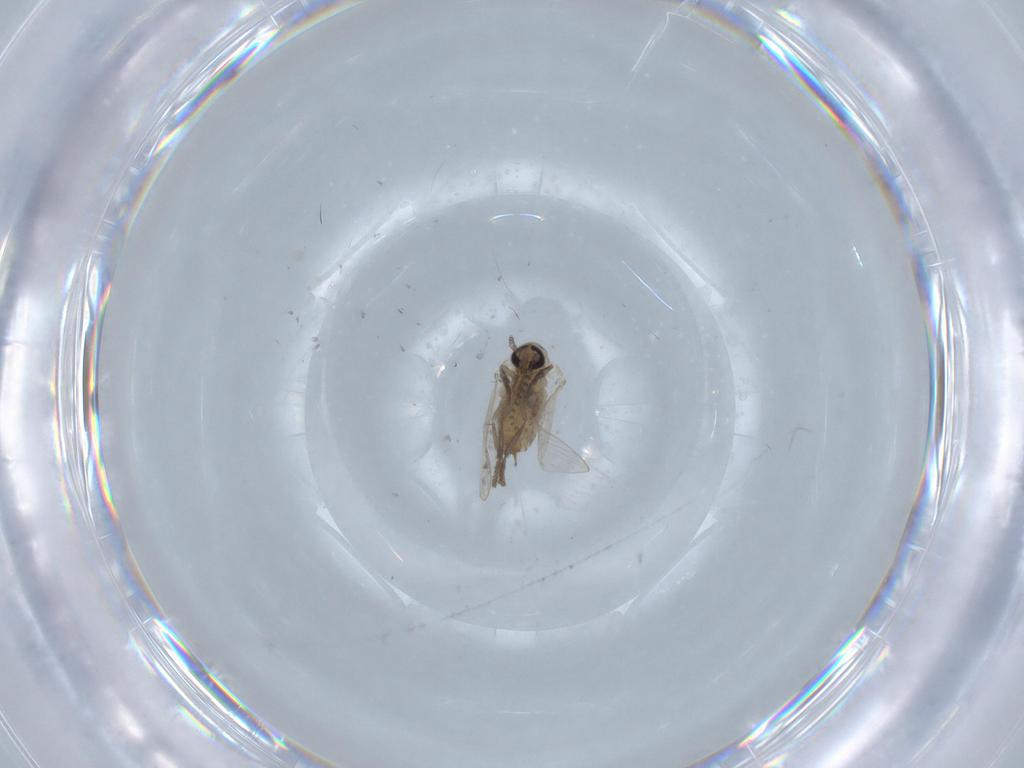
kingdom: Animalia
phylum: Arthropoda
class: Insecta
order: Diptera
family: Psychodidae
